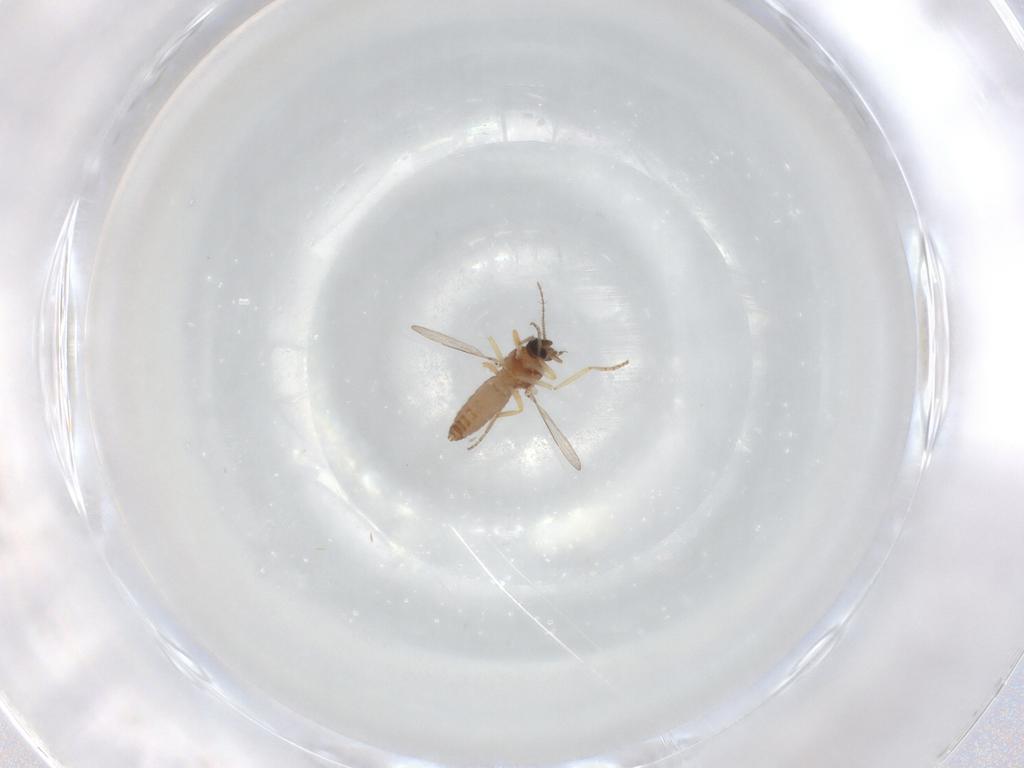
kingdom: Animalia
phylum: Arthropoda
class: Insecta
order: Diptera
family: Ceratopogonidae
